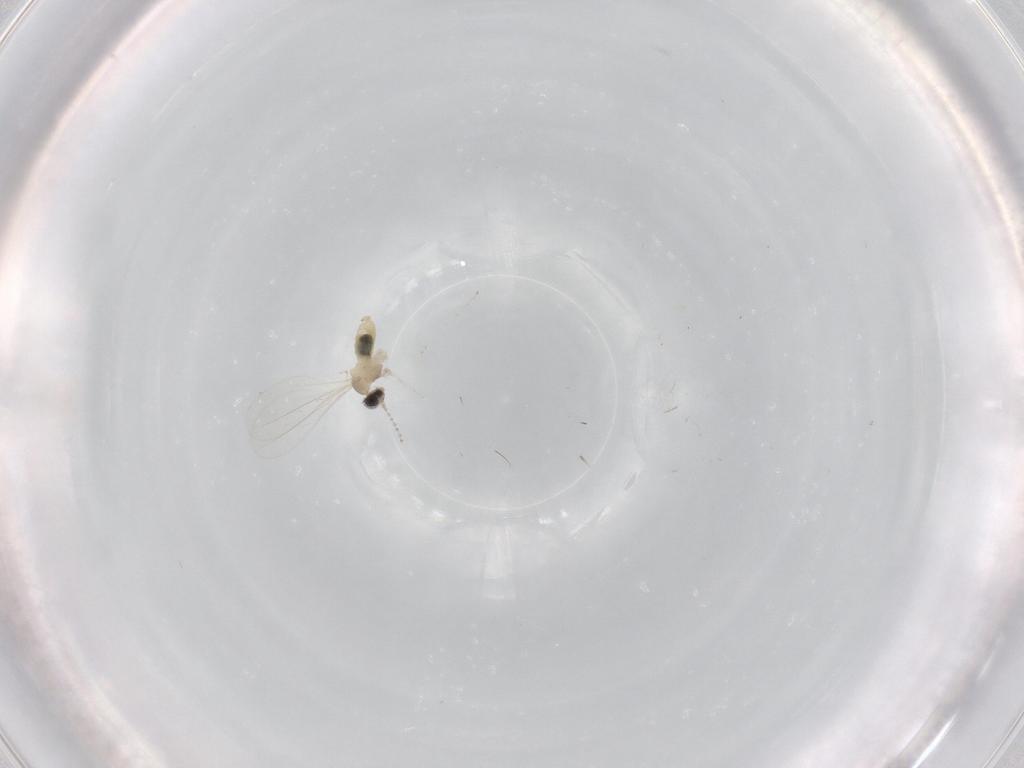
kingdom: Animalia
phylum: Arthropoda
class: Insecta
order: Diptera
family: Cecidomyiidae
